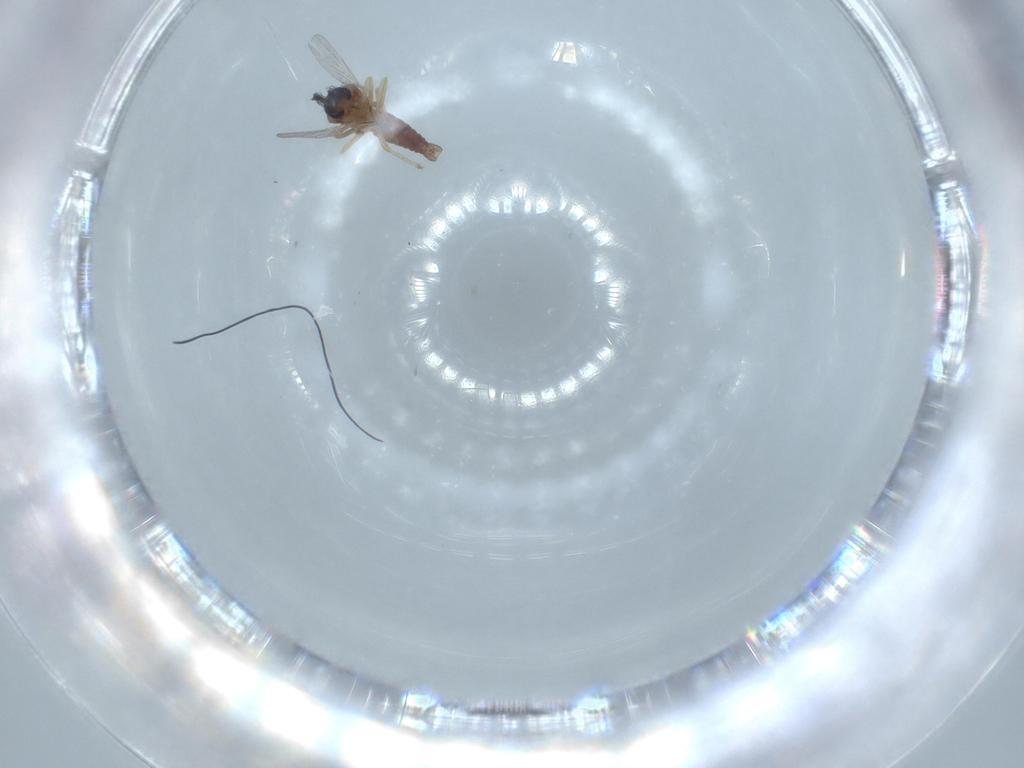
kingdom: Animalia
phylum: Arthropoda
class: Insecta
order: Diptera
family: Ceratopogonidae
